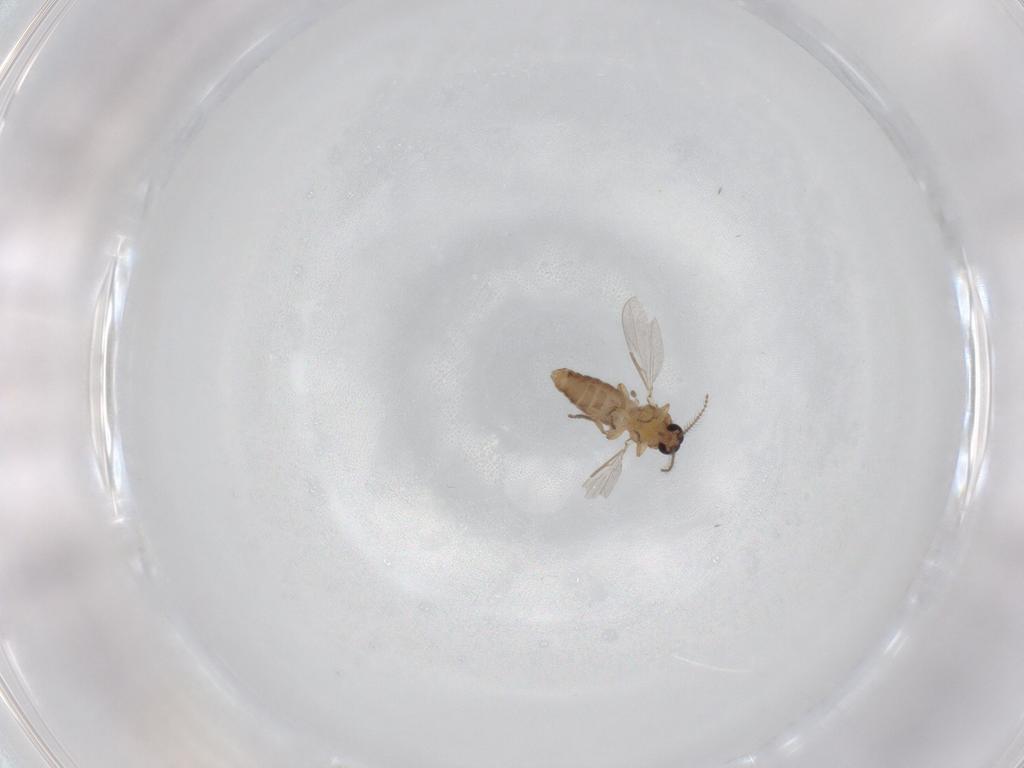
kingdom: Animalia
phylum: Arthropoda
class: Insecta
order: Diptera
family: Ceratopogonidae
